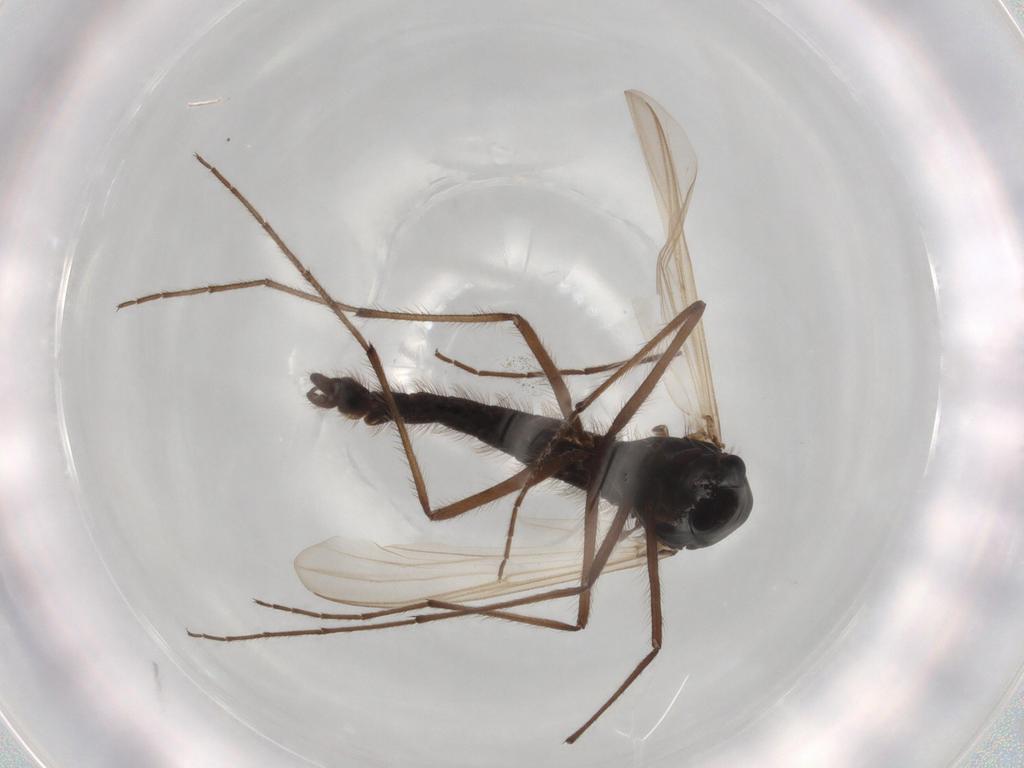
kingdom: Animalia
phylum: Arthropoda
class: Insecta
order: Diptera
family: Hybotidae
